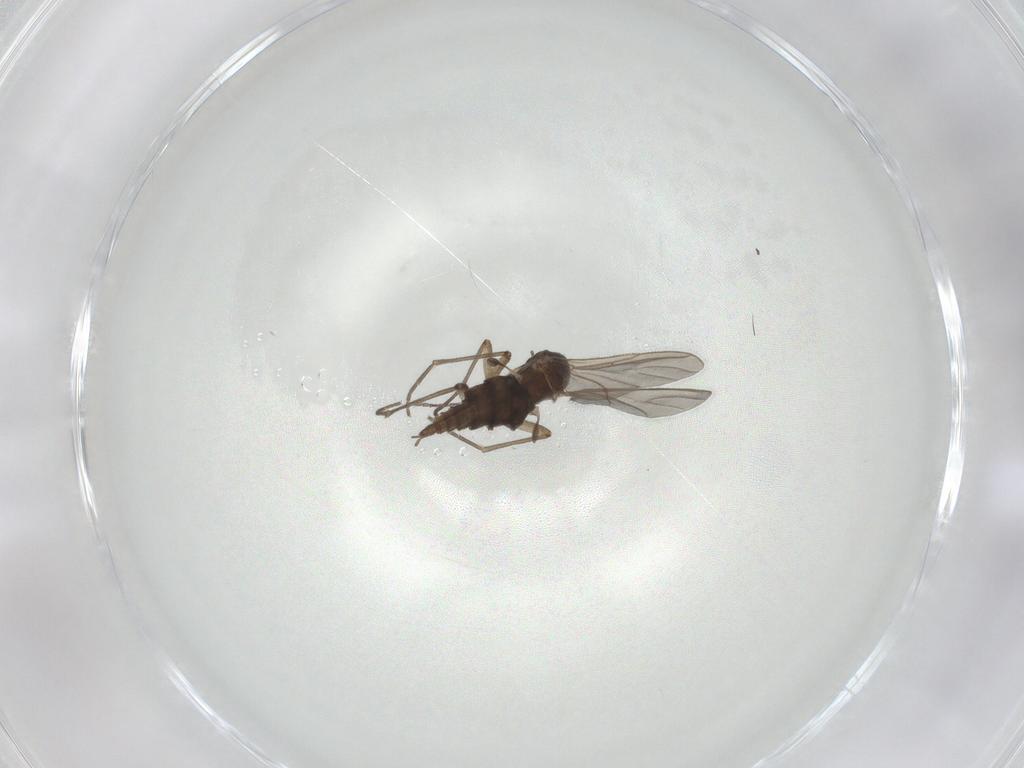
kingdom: Animalia
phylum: Arthropoda
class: Insecta
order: Diptera
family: Sciaridae
